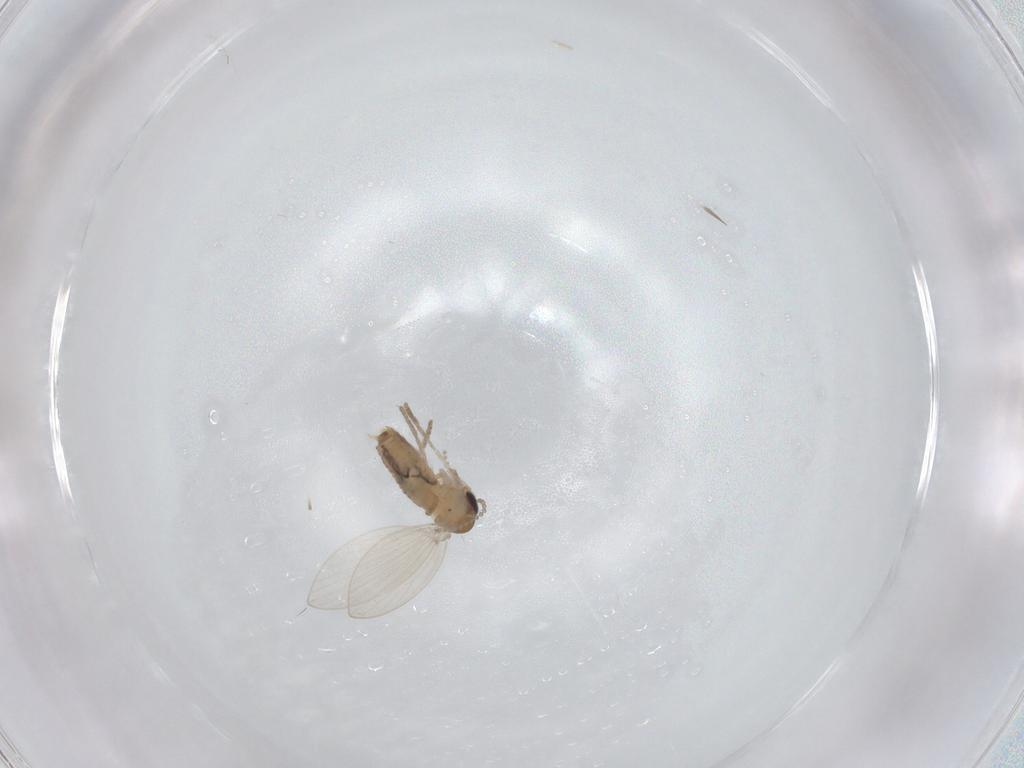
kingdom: Animalia
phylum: Arthropoda
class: Insecta
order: Diptera
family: Psychodidae
